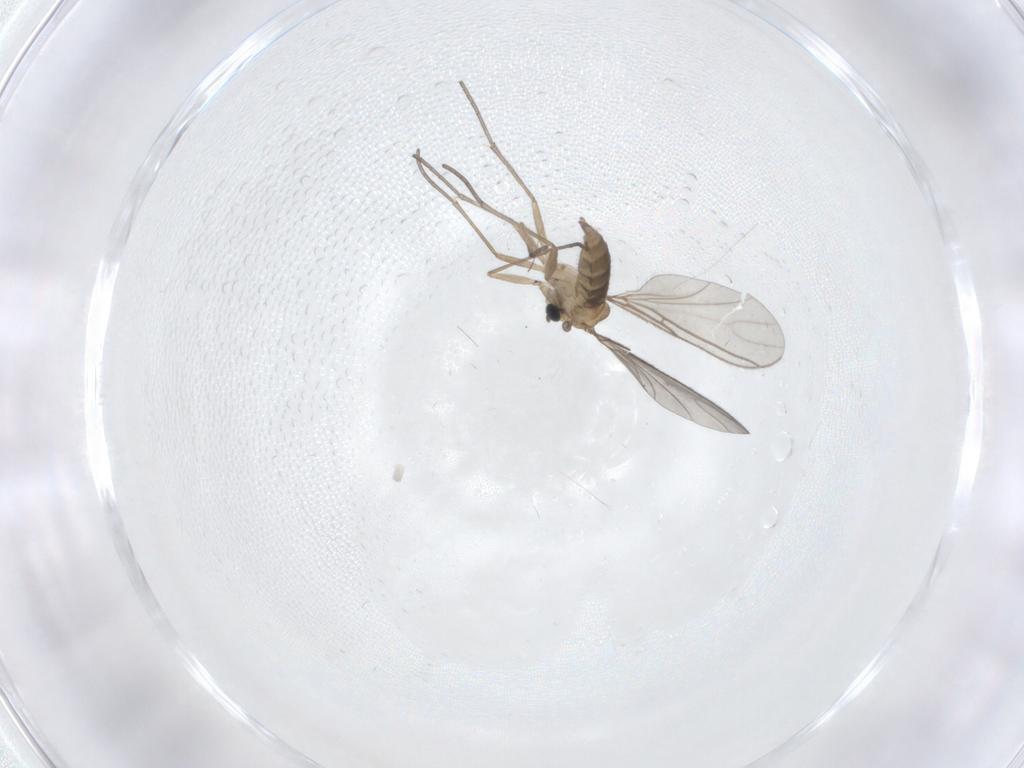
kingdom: Animalia
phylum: Arthropoda
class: Insecta
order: Diptera
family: Sciaridae
